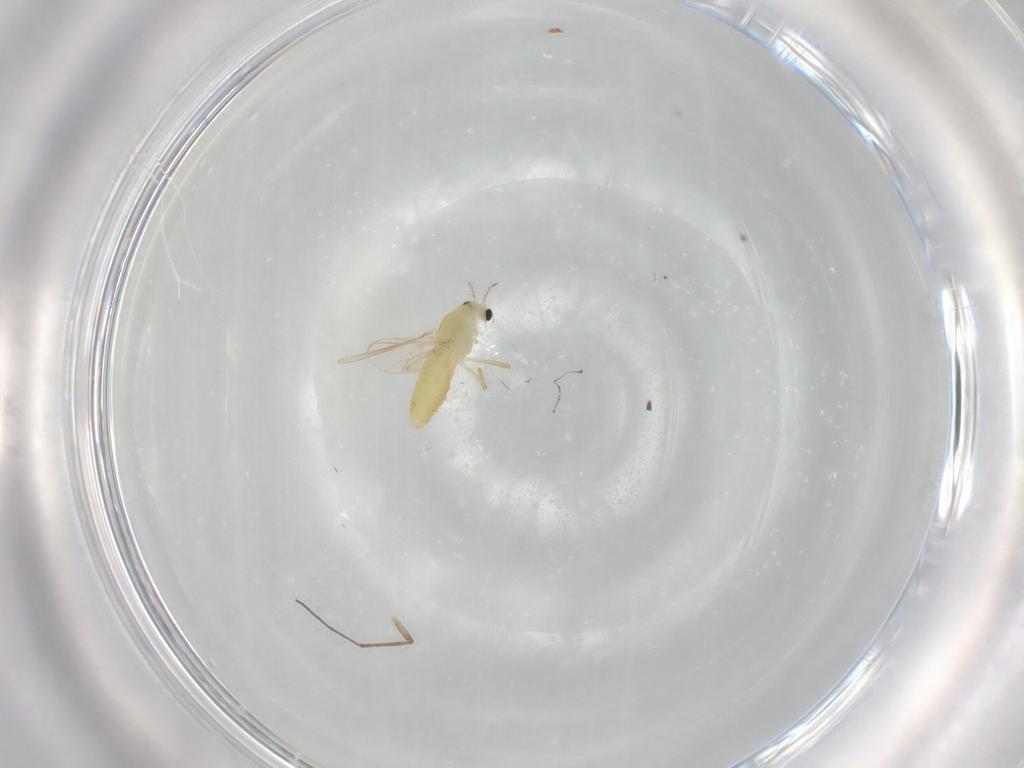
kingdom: Animalia
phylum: Arthropoda
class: Insecta
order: Diptera
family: Chironomidae
